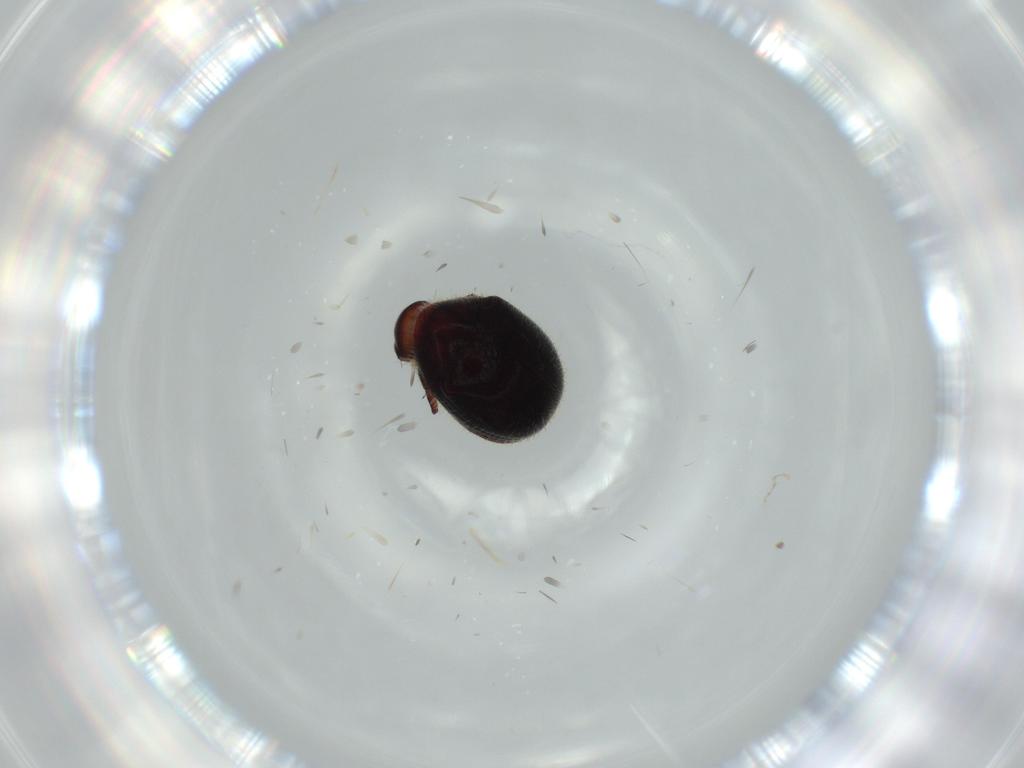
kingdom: Animalia
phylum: Arthropoda
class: Insecta
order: Coleoptera
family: Ptinidae
